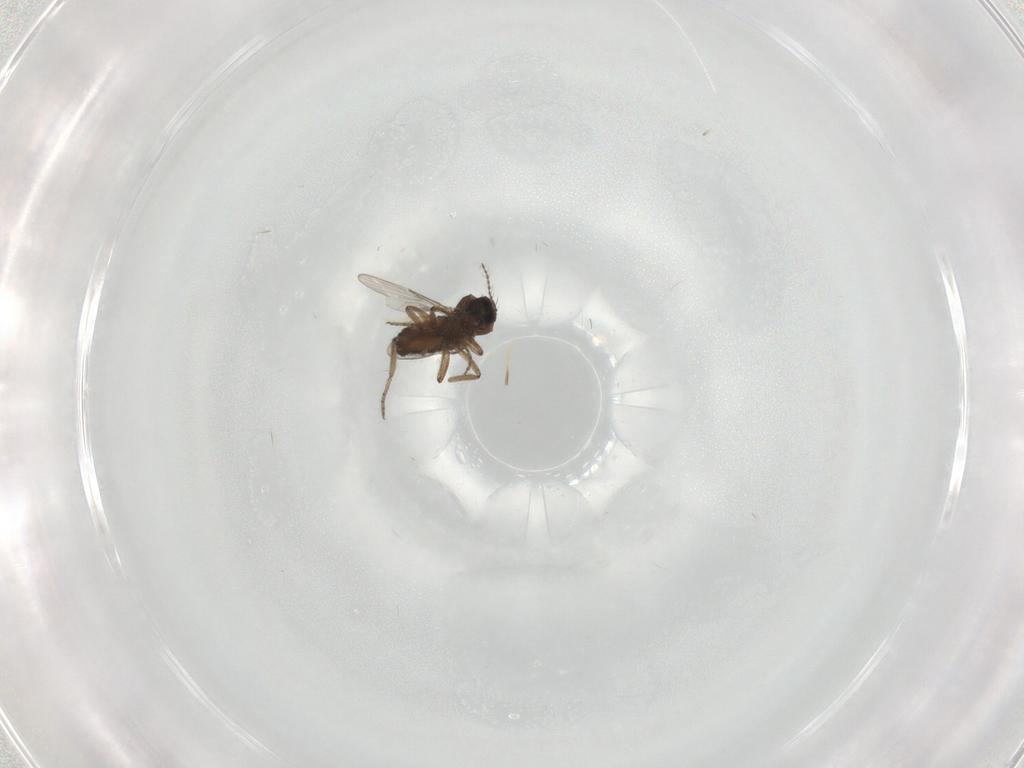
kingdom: Animalia
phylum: Arthropoda
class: Insecta
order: Diptera
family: Ceratopogonidae
